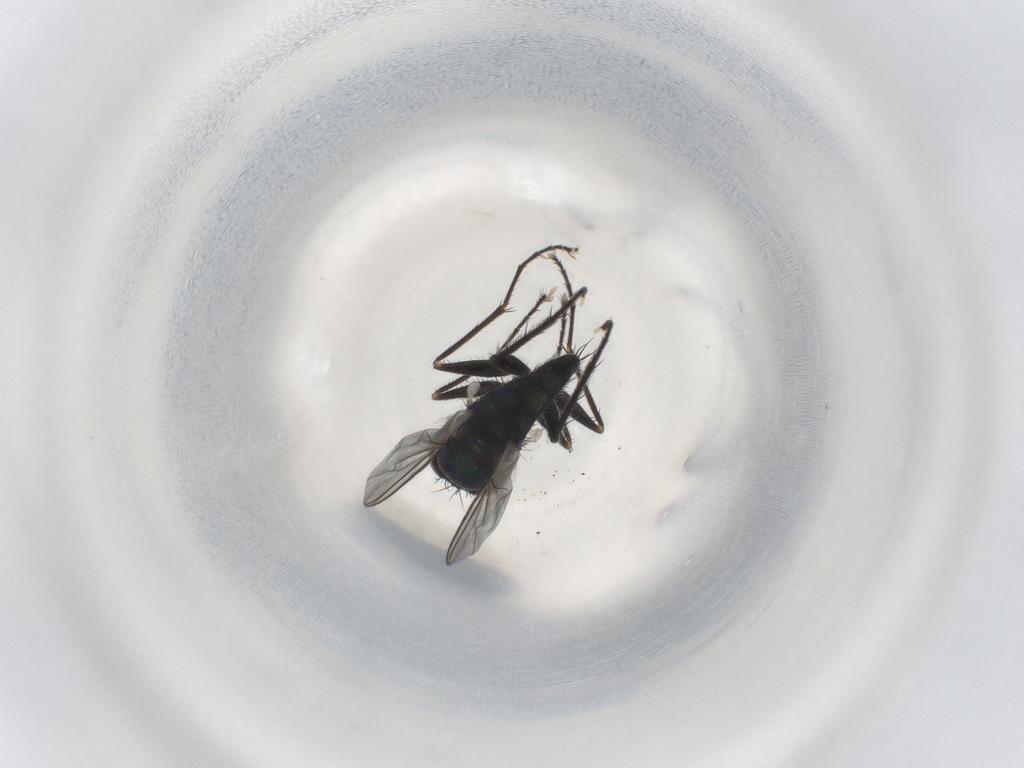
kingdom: Animalia
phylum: Arthropoda
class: Insecta
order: Diptera
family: Dolichopodidae
